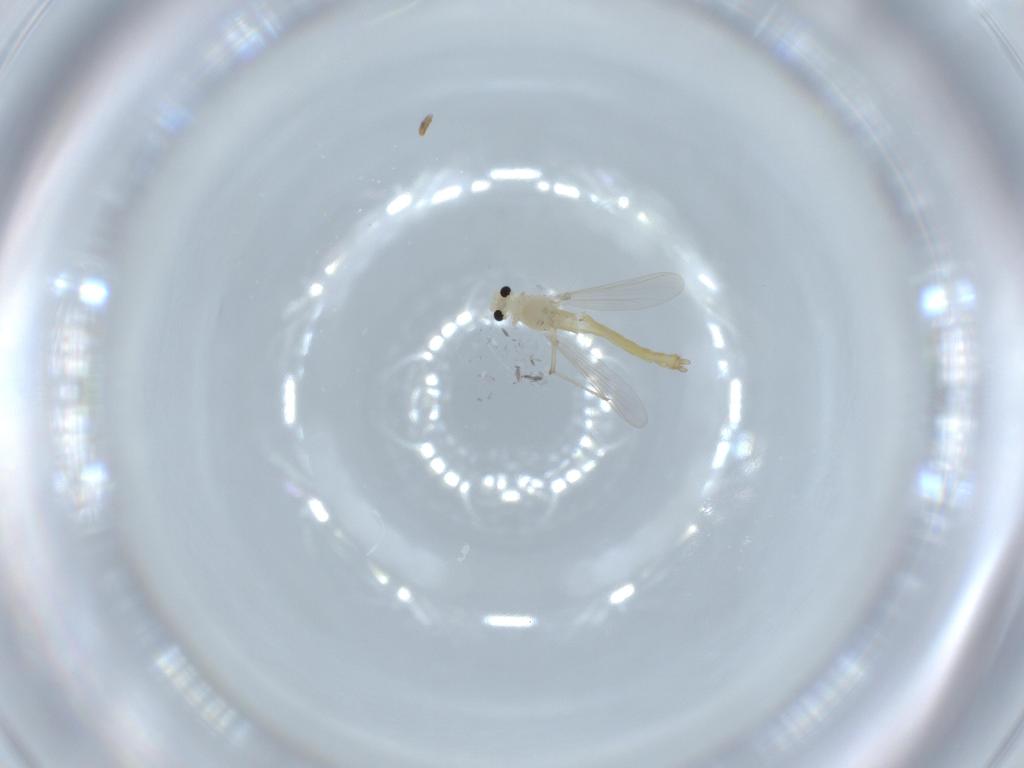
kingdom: Animalia
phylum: Arthropoda
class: Insecta
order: Diptera
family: Chironomidae
